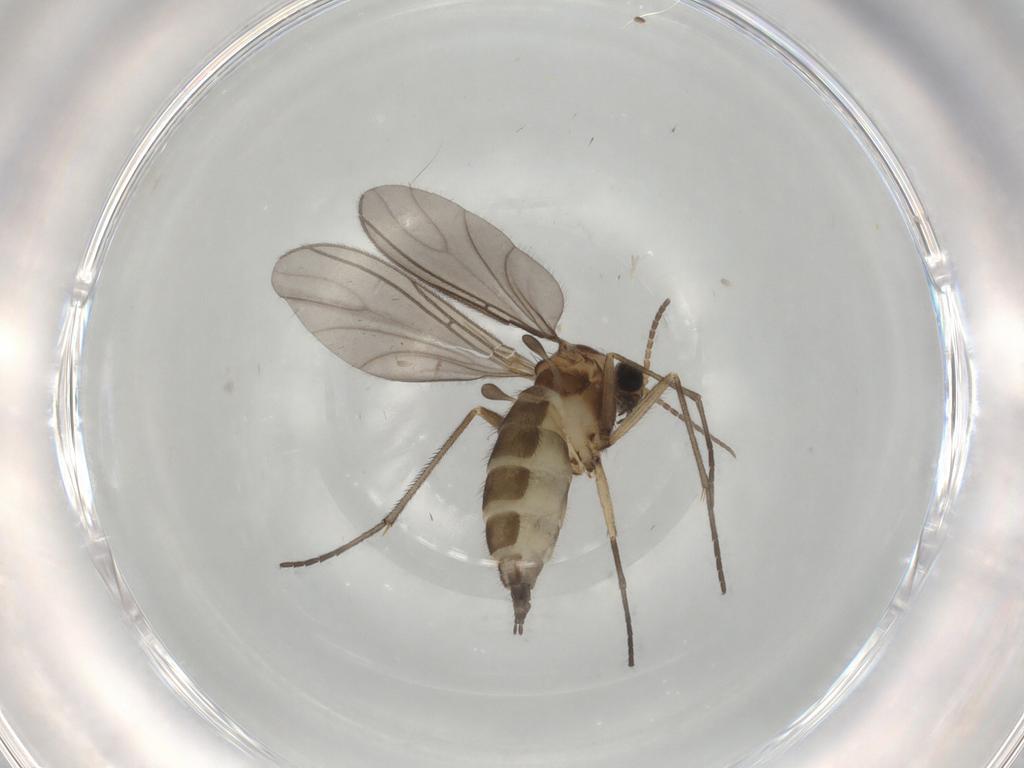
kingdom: Animalia
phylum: Arthropoda
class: Insecta
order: Diptera
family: Sciaridae
